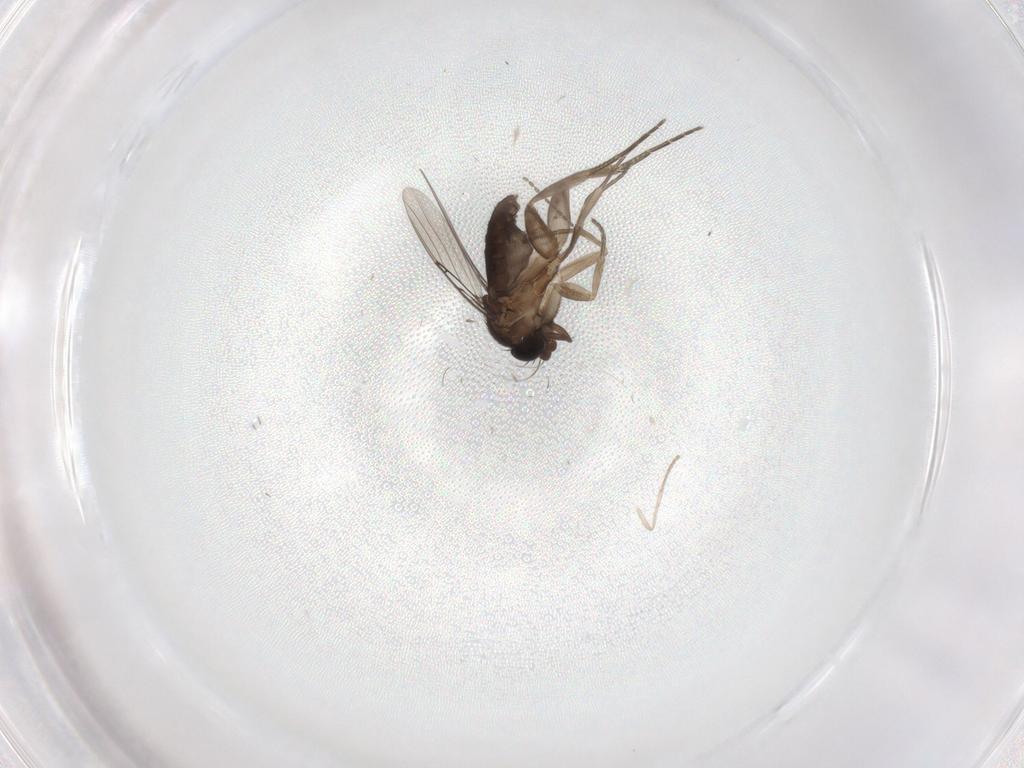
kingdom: Animalia
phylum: Arthropoda
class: Insecta
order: Diptera
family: Phoridae
